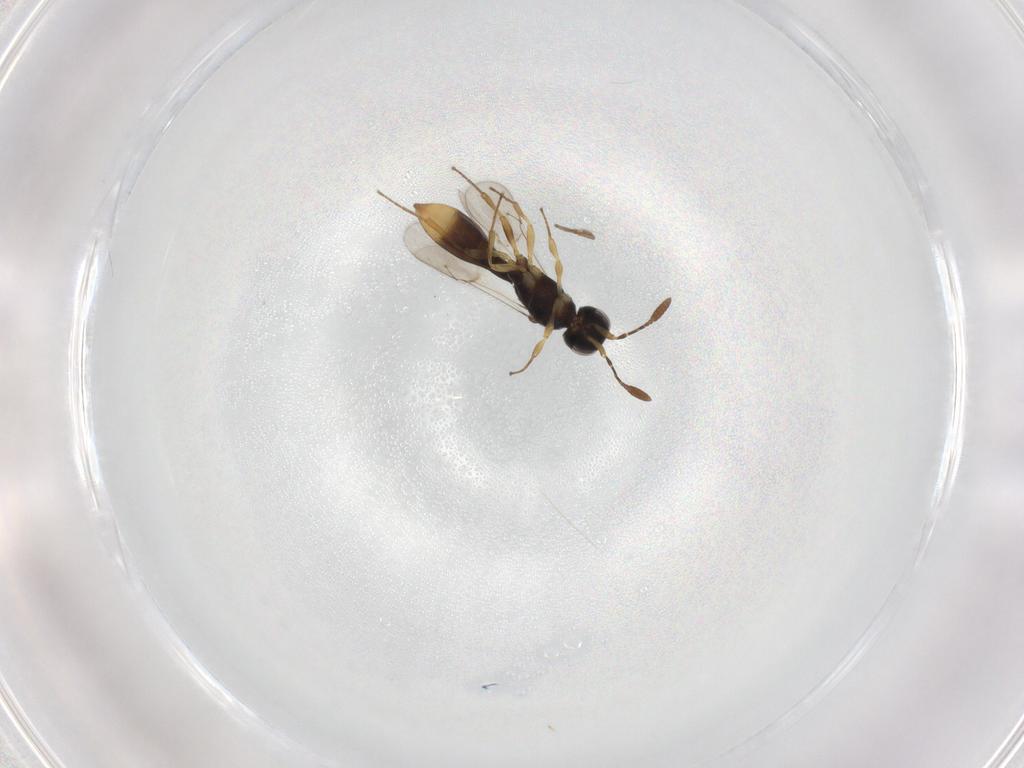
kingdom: Animalia
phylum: Arthropoda
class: Insecta
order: Hymenoptera
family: Scelionidae
